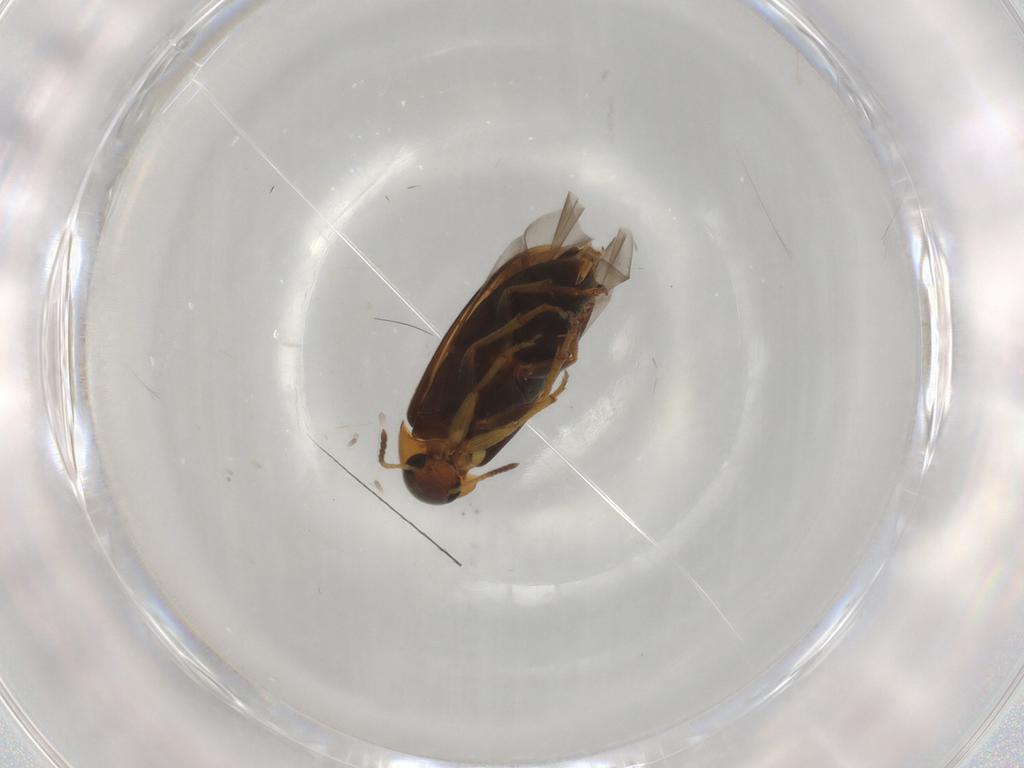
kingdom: Animalia
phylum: Arthropoda
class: Insecta
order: Coleoptera
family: Scraptiidae
